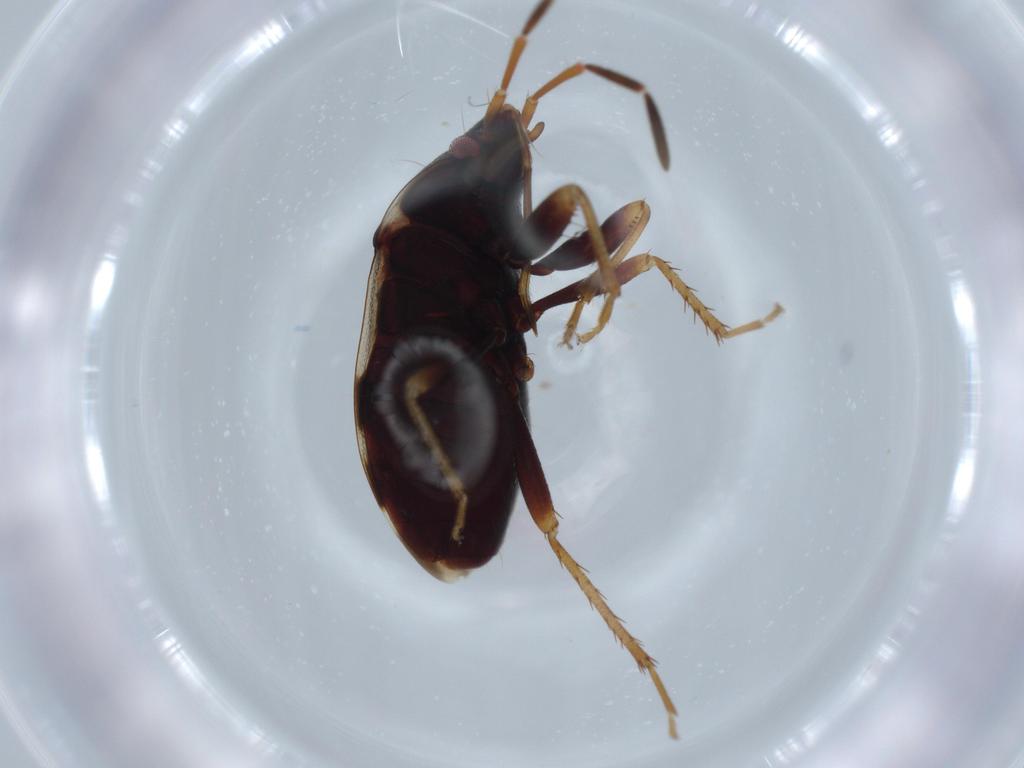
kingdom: Animalia
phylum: Arthropoda
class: Insecta
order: Hemiptera
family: Rhyparochromidae
